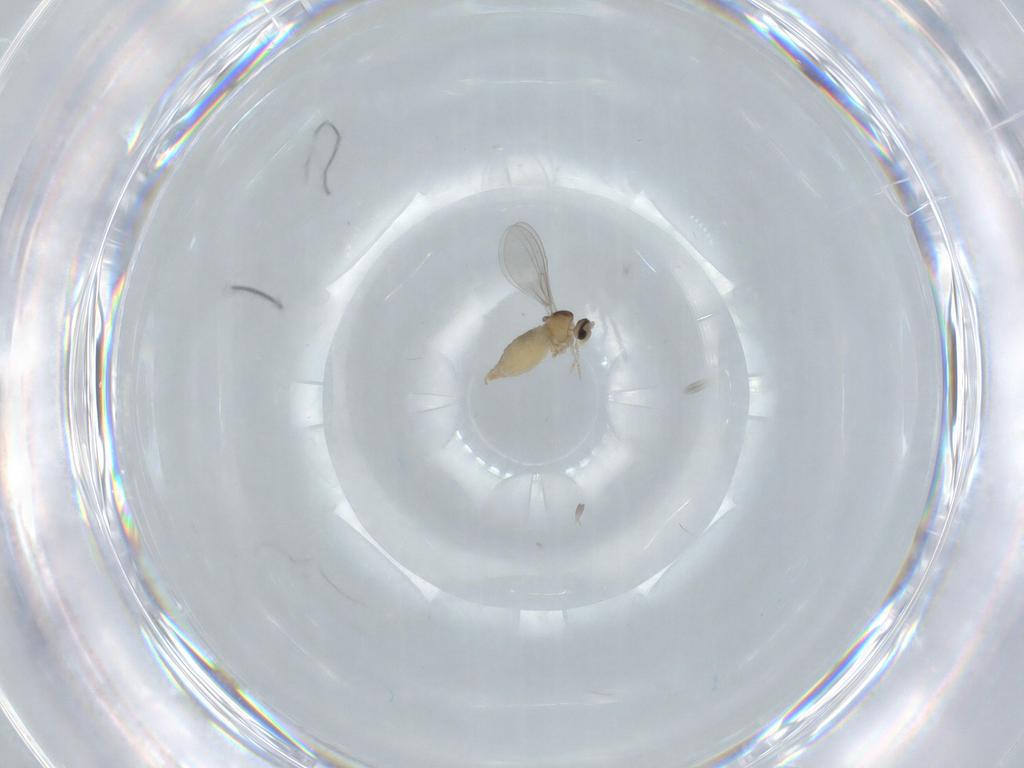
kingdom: Animalia
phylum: Arthropoda
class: Insecta
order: Diptera
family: Cecidomyiidae
